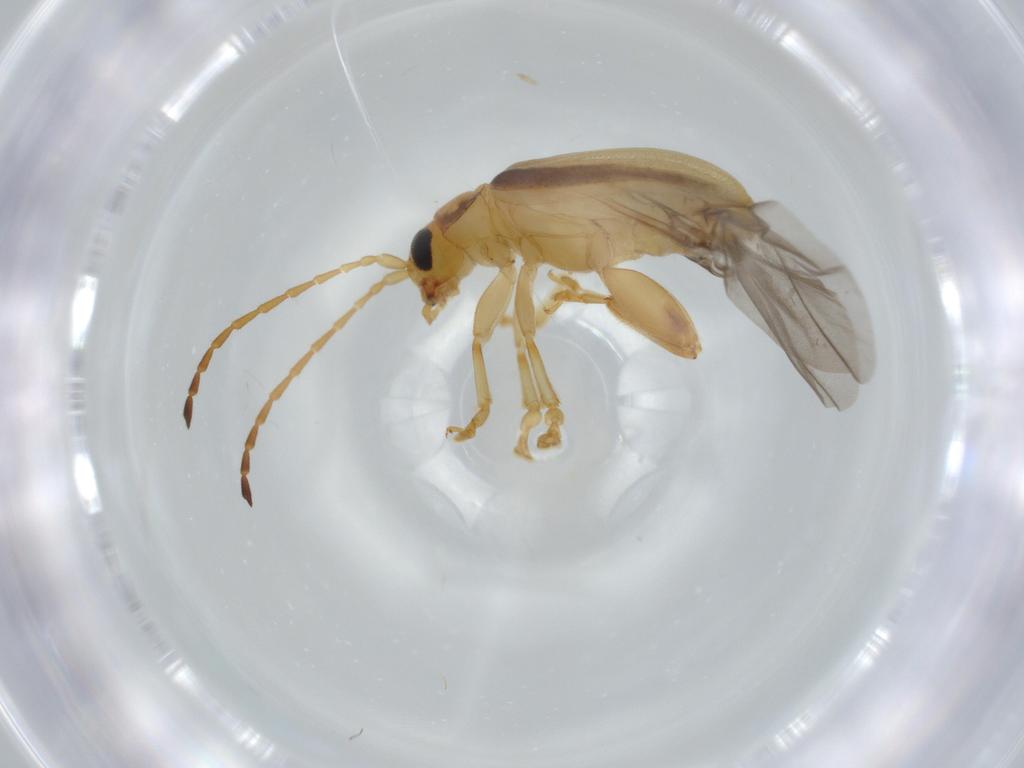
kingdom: Animalia
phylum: Arthropoda
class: Insecta
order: Coleoptera
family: Chrysomelidae
